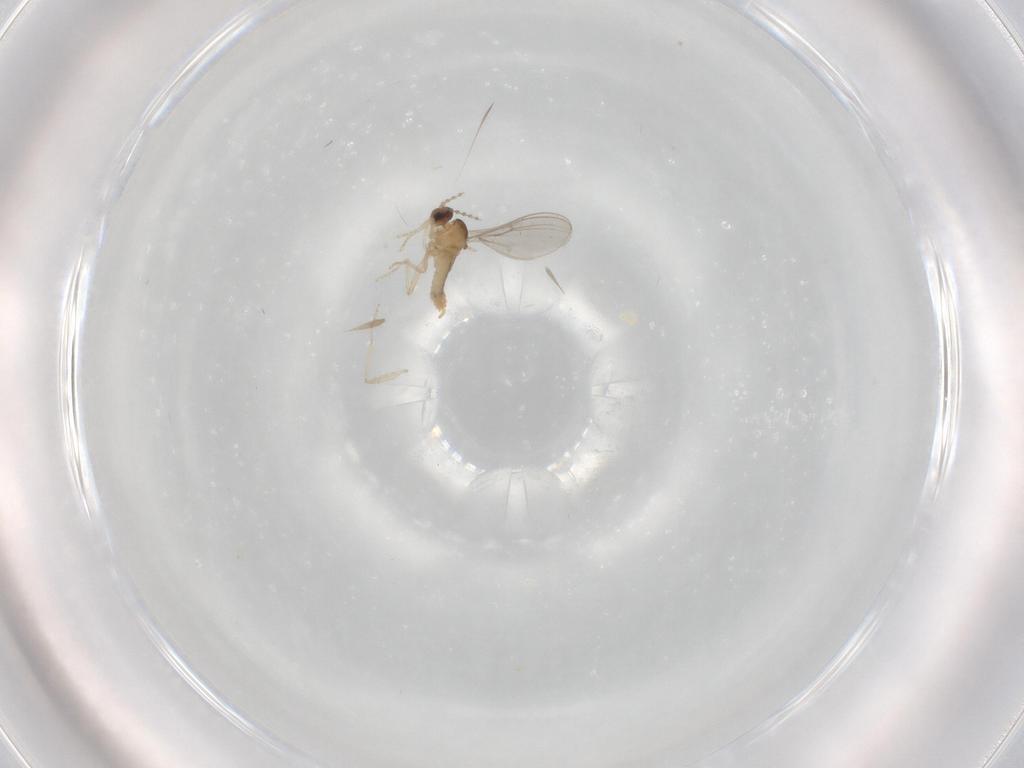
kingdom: Animalia
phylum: Arthropoda
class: Insecta
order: Diptera
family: Cecidomyiidae
